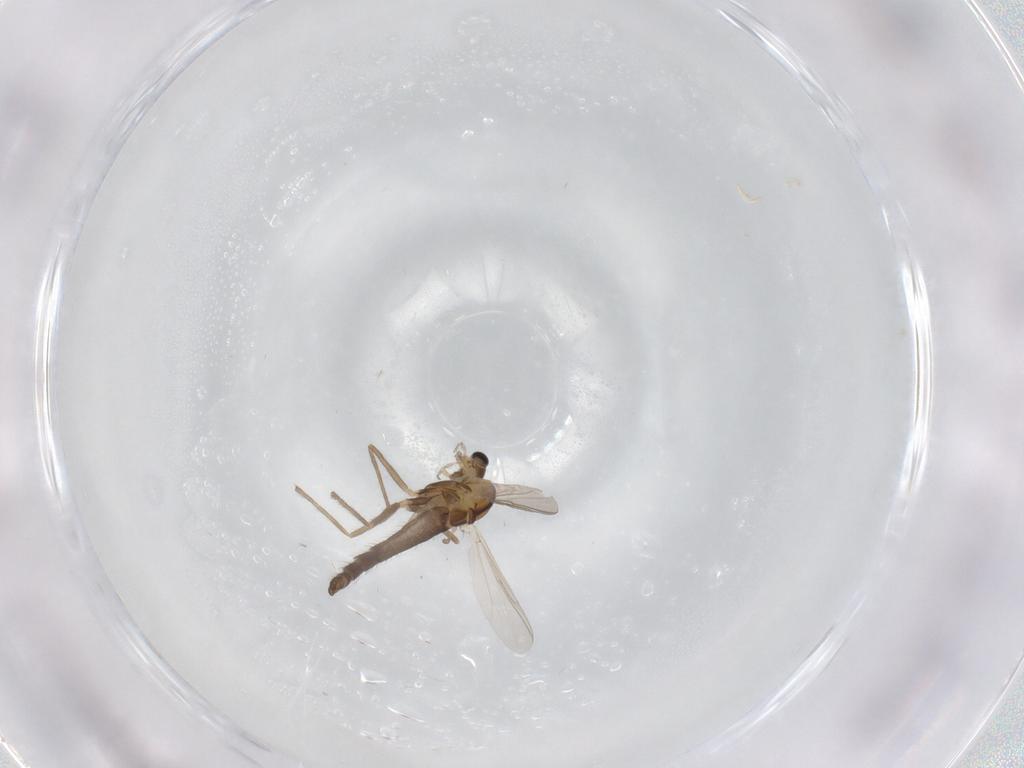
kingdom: Animalia
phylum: Arthropoda
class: Insecta
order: Diptera
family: Chironomidae
